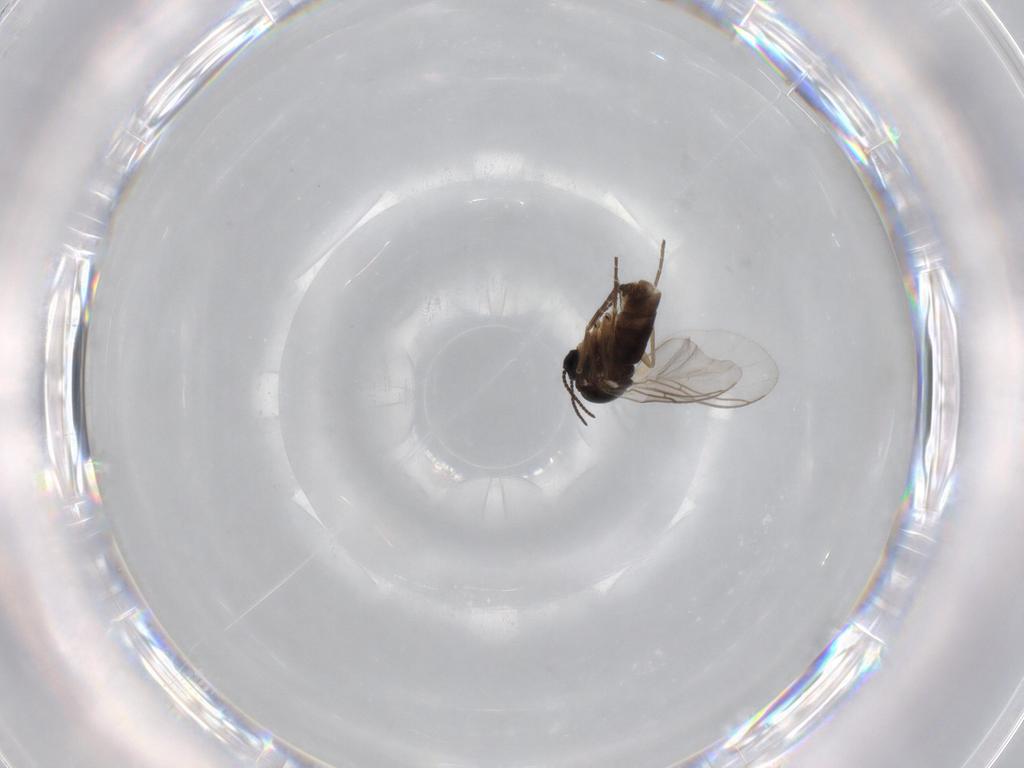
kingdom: Animalia
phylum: Arthropoda
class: Insecta
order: Diptera
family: Sciaridae
